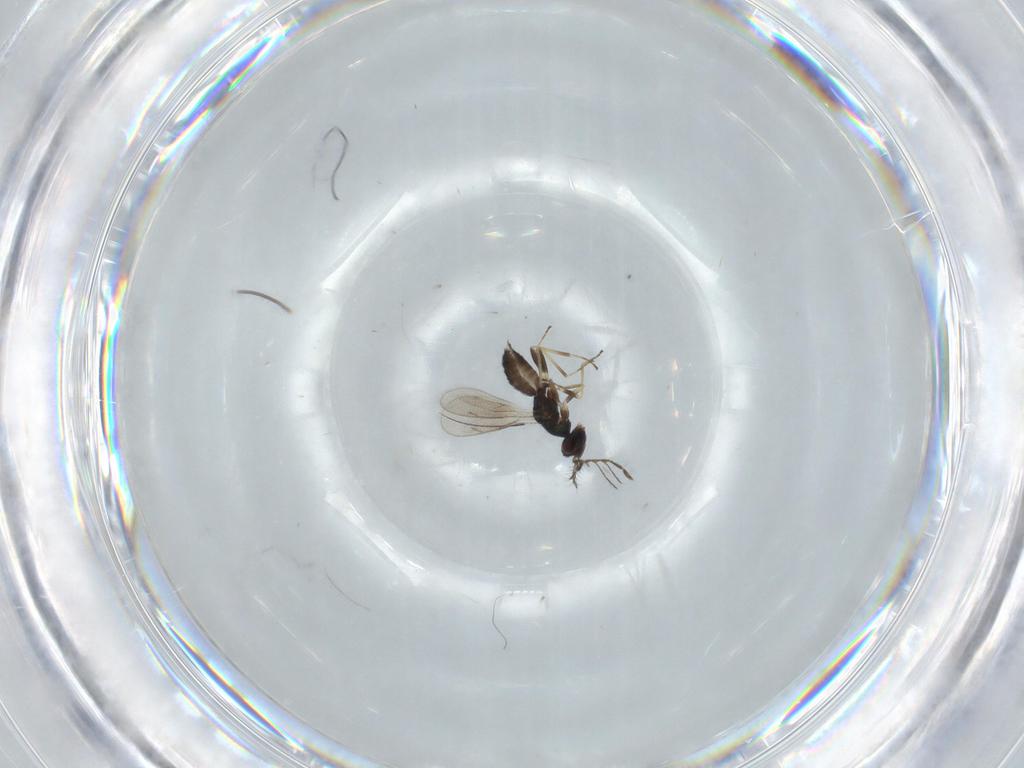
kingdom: Animalia
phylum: Arthropoda
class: Insecta
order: Hymenoptera
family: Eulophidae
